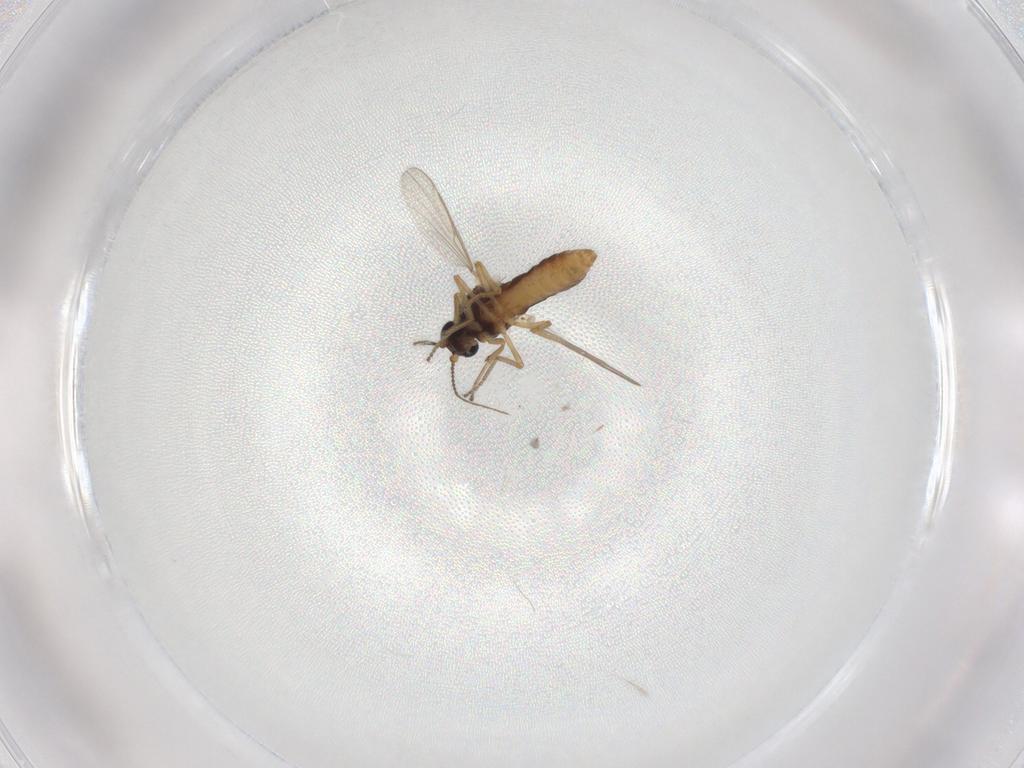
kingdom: Animalia
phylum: Arthropoda
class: Insecta
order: Diptera
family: Ceratopogonidae
